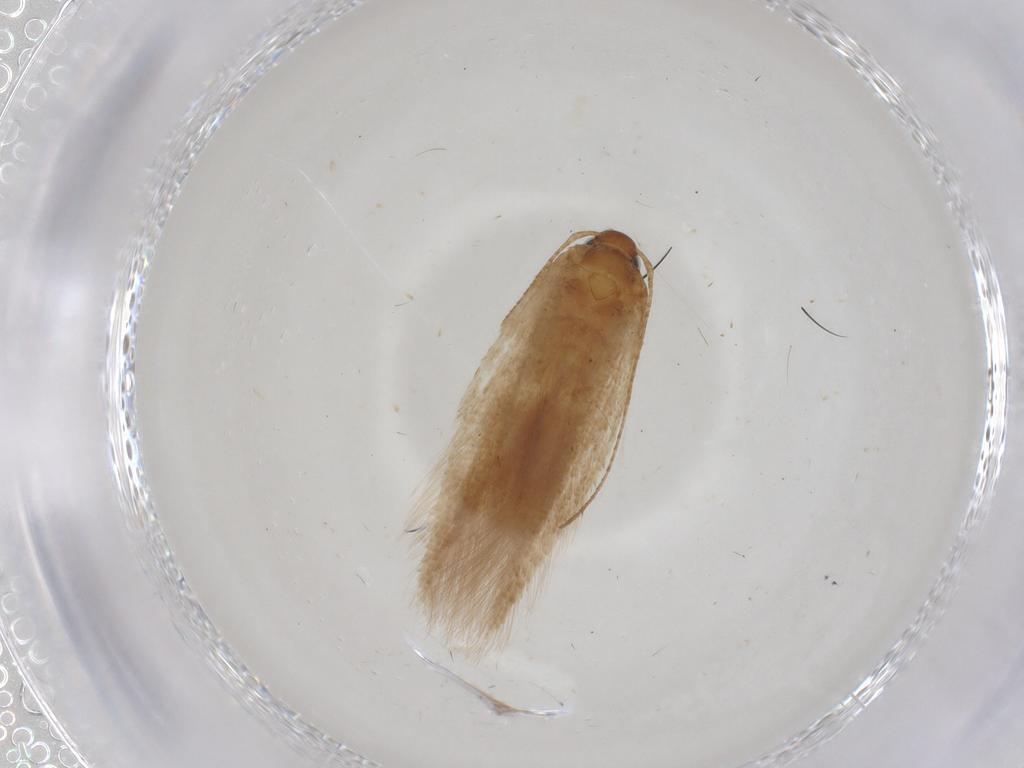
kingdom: Animalia
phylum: Arthropoda
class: Insecta
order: Lepidoptera
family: Gelechiidae
